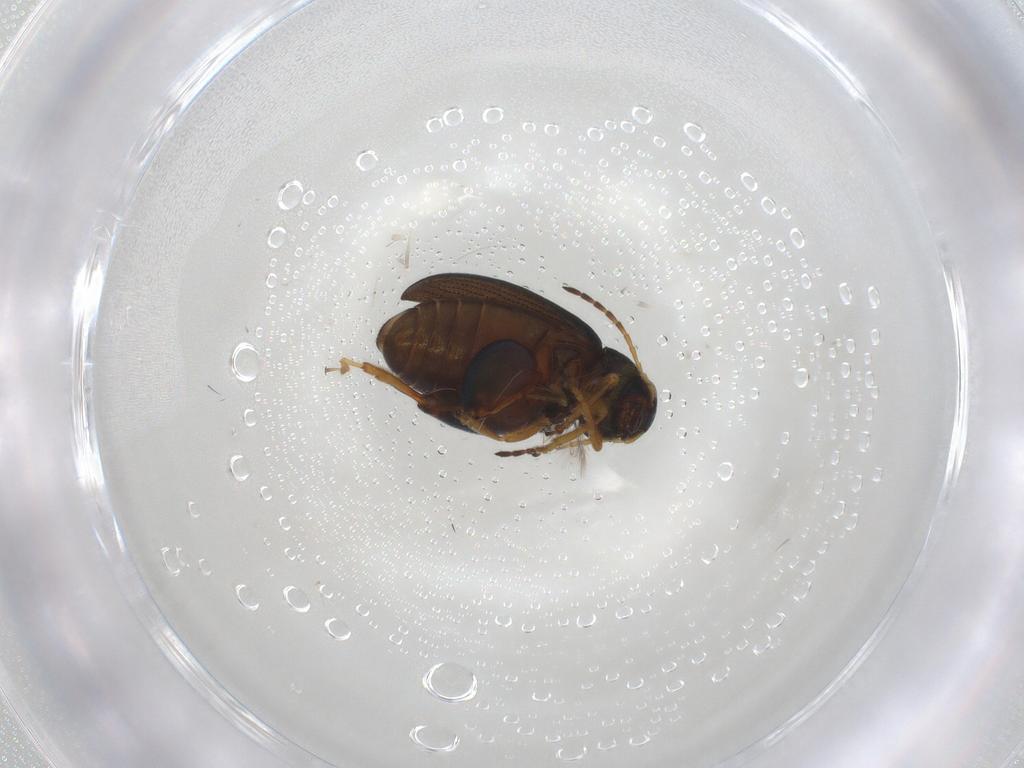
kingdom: Animalia
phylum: Arthropoda
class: Insecta
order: Coleoptera
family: Chrysomelidae
